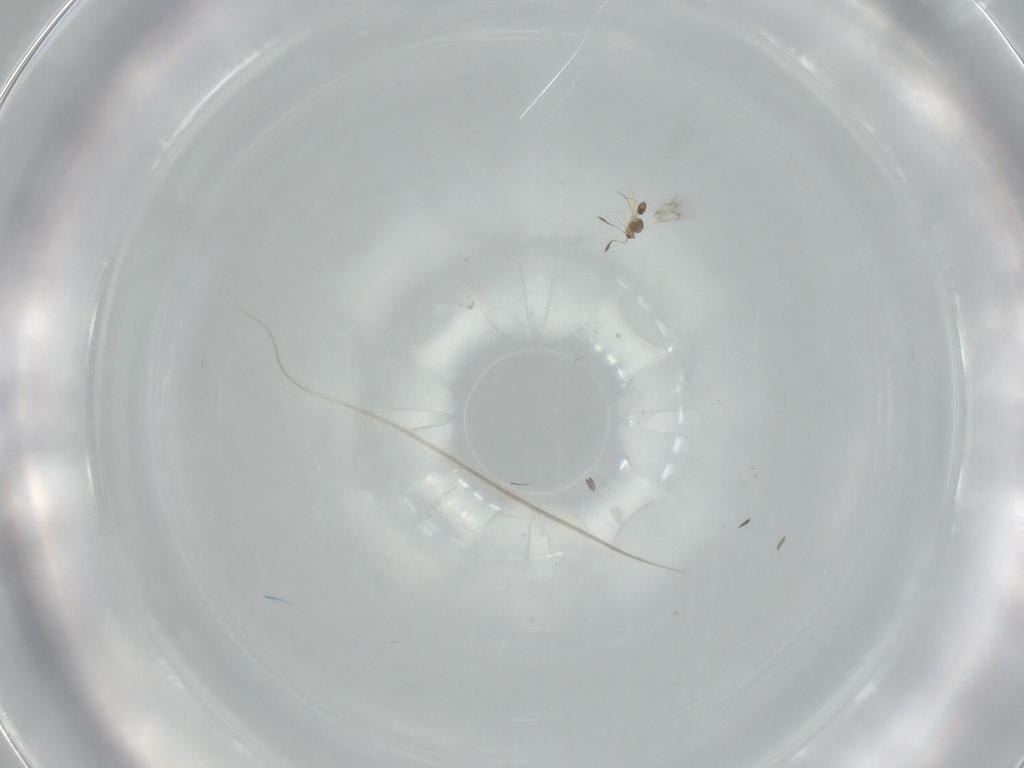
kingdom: Animalia
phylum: Arthropoda
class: Insecta
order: Hymenoptera
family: Mymarommatidae
